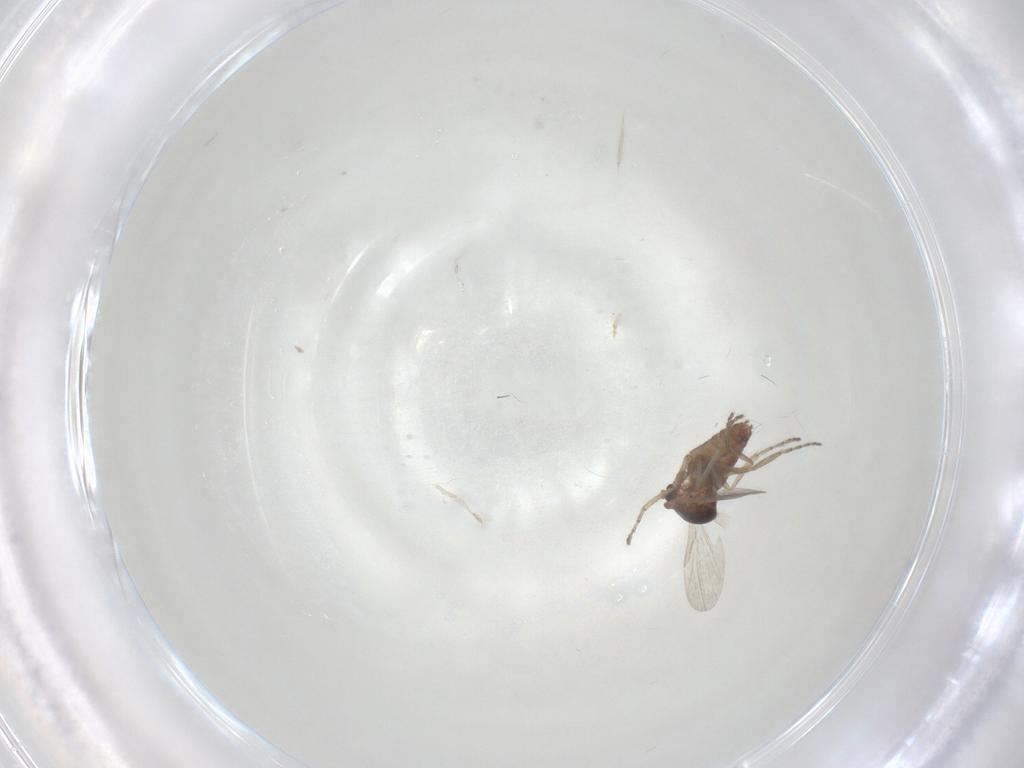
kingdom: Animalia
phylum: Arthropoda
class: Insecta
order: Diptera
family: Ceratopogonidae
